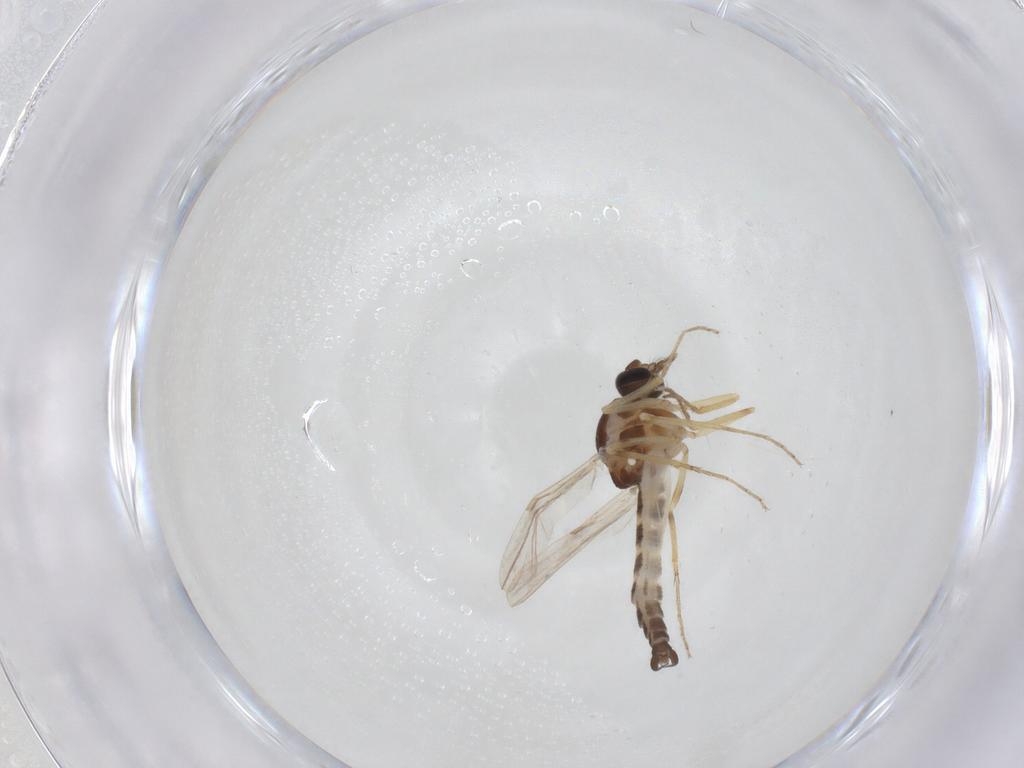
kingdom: Animalia
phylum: Arthropoda
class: Insecta
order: Diptera
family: Ceratopogonidae
